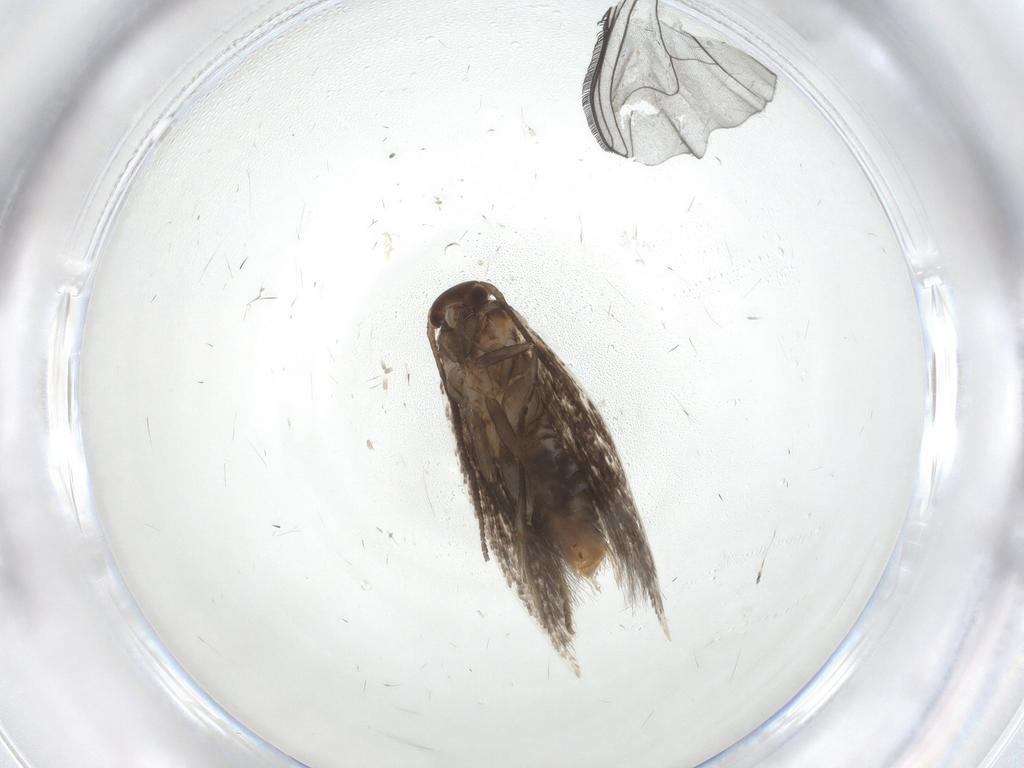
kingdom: Animalia
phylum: Arthropoda
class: Insecta
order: Lepidoptera
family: Elachistidae
